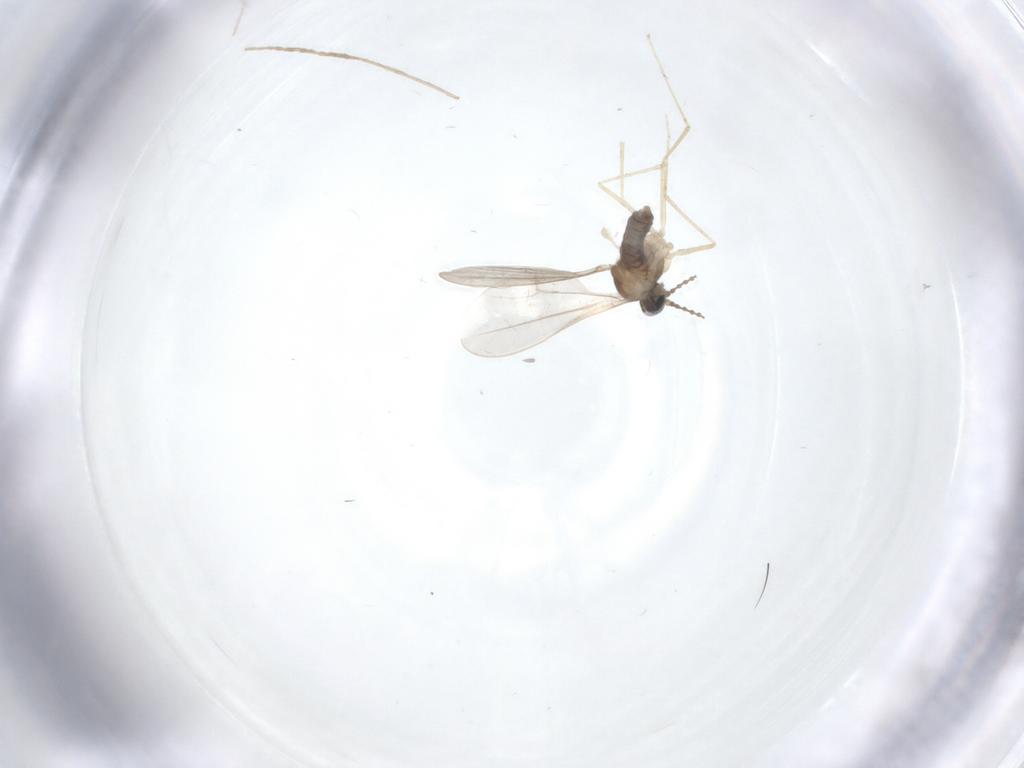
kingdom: Animalia
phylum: Arthropoda
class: Insecta
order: Diptera
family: Cecidomyiidae
